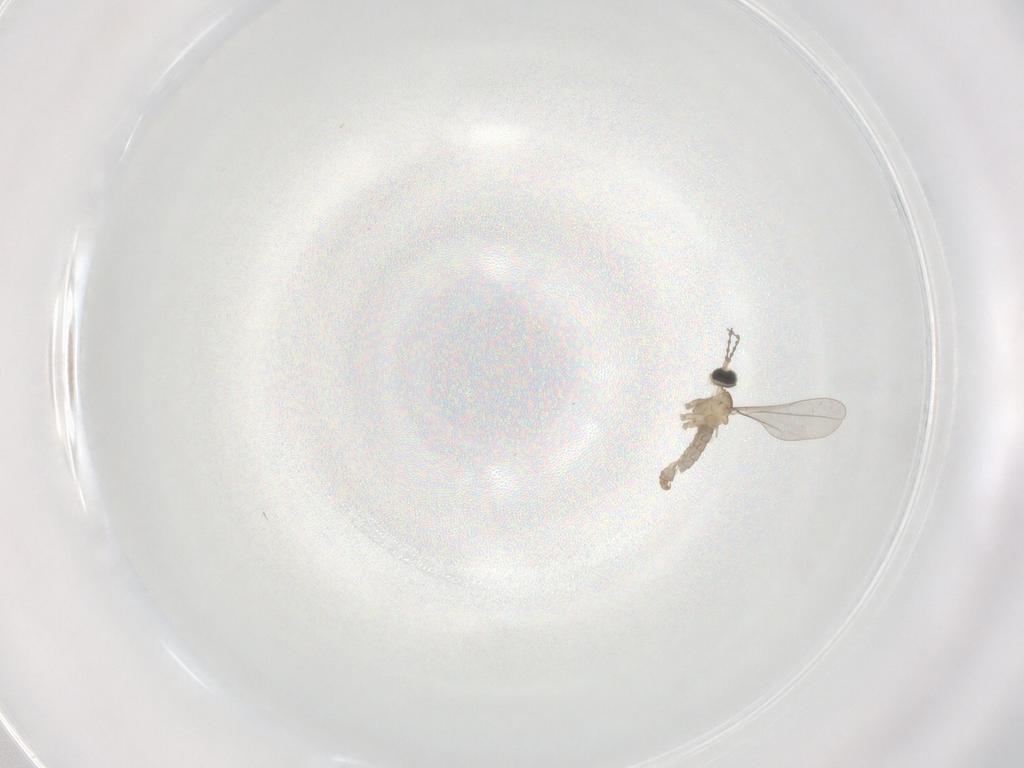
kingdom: Animalia
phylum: Arthropoda
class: Insecta
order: Diptera
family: Cecidomyiidae
